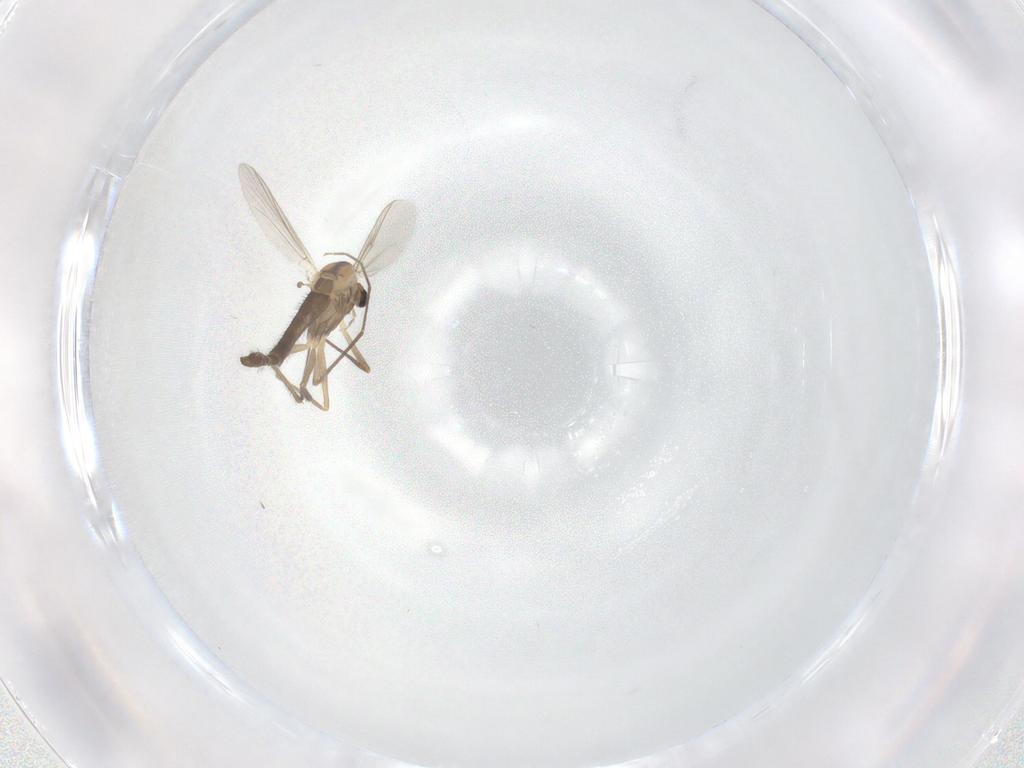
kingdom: Animalia
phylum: Arthropoda
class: Insecta
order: Diptera
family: Chironomidae
